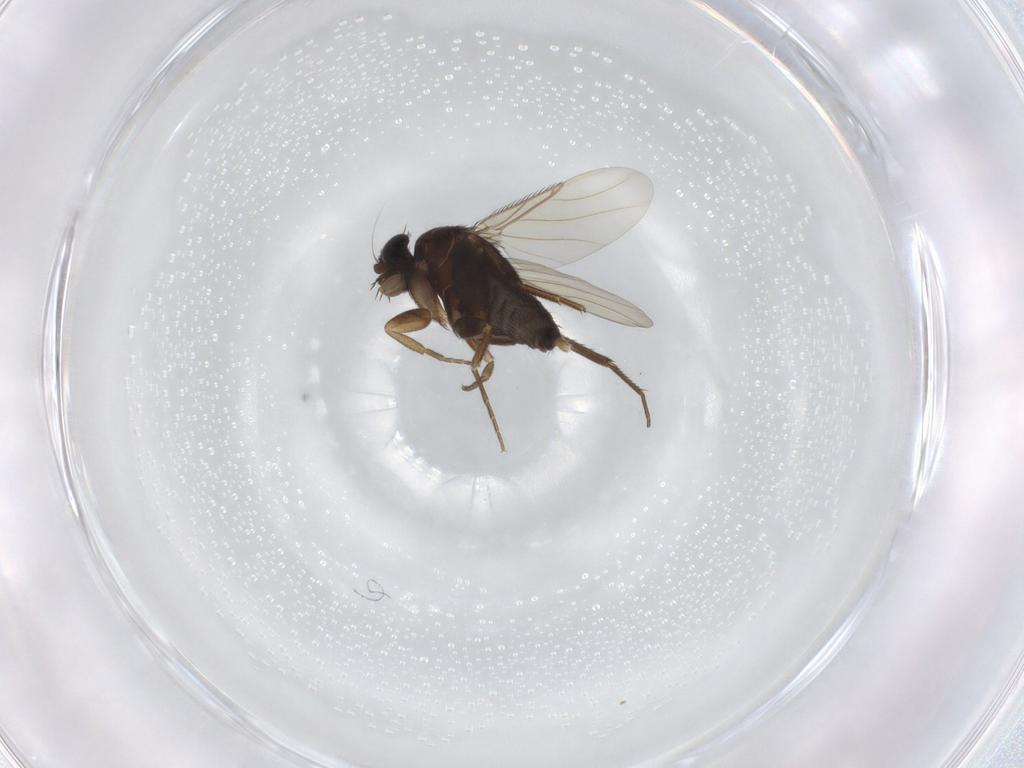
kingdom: Animalia
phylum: Arthropoda
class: Insecta
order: Diptera
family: Phoridae
